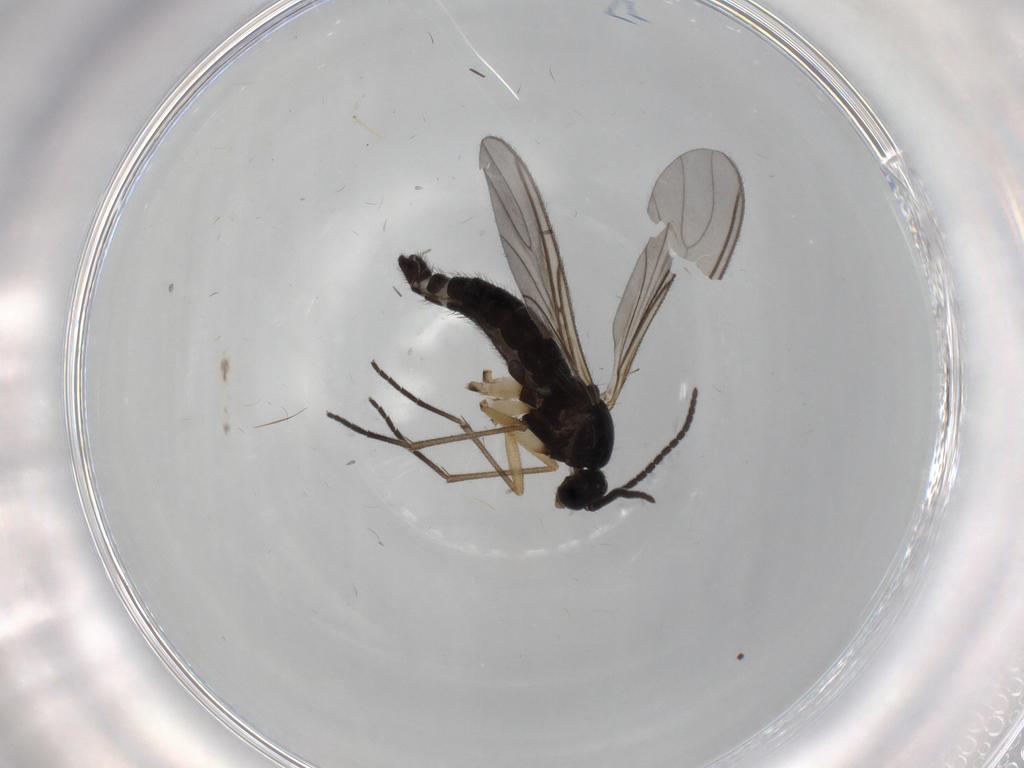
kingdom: Animalia
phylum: Arthropoda
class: Insecta
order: Diptera
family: Sciaridae
